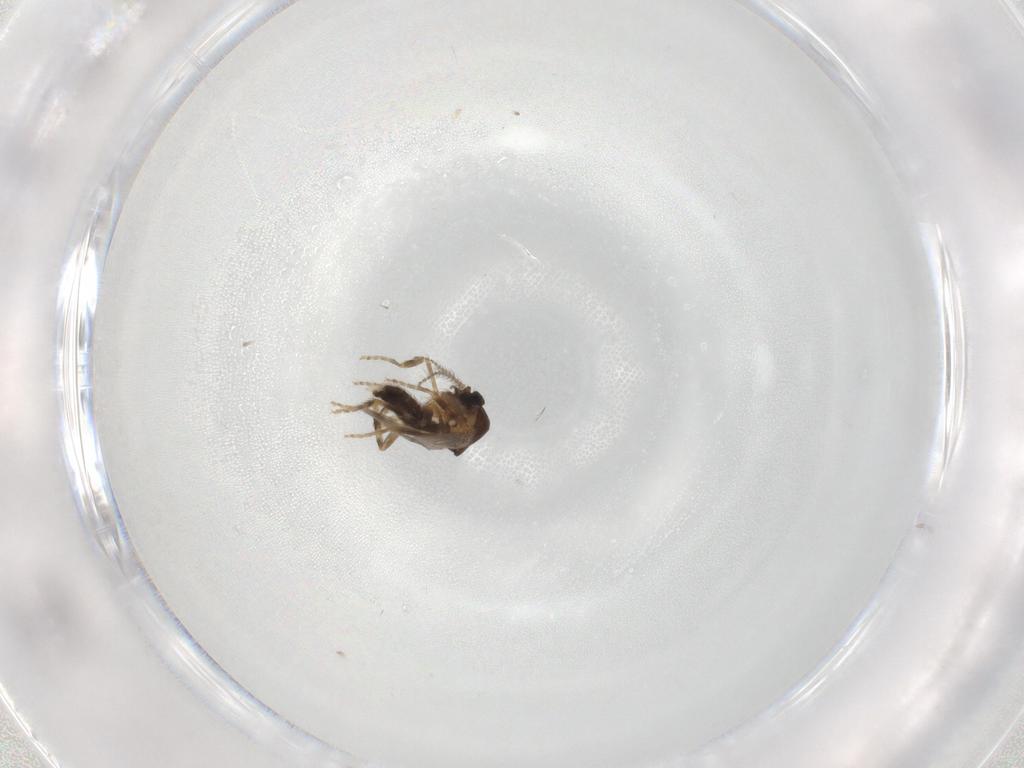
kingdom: Animalia
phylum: Arthropoda
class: Insecta
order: Diptera
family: Ceratopogonidae
